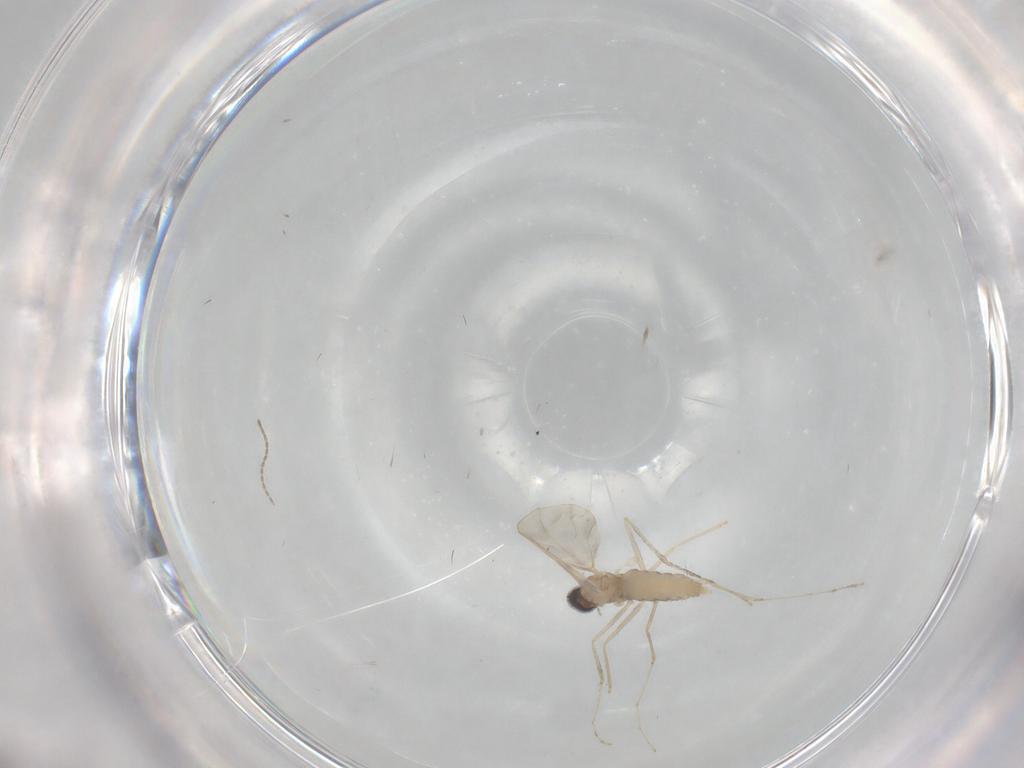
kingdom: Animalia
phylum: Arthropoda
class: Insecta
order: Diptera
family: Cecidomyiidae
